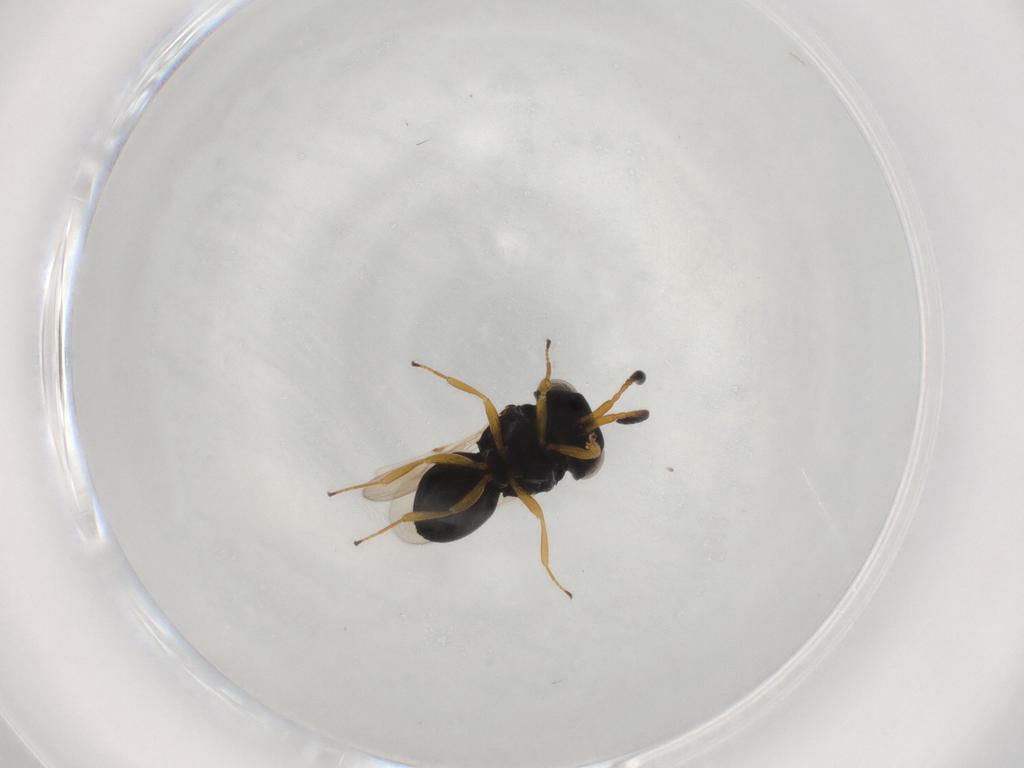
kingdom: Animalia
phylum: Arthropoda
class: Insecta
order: Hymenoptera
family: Scelionidae
